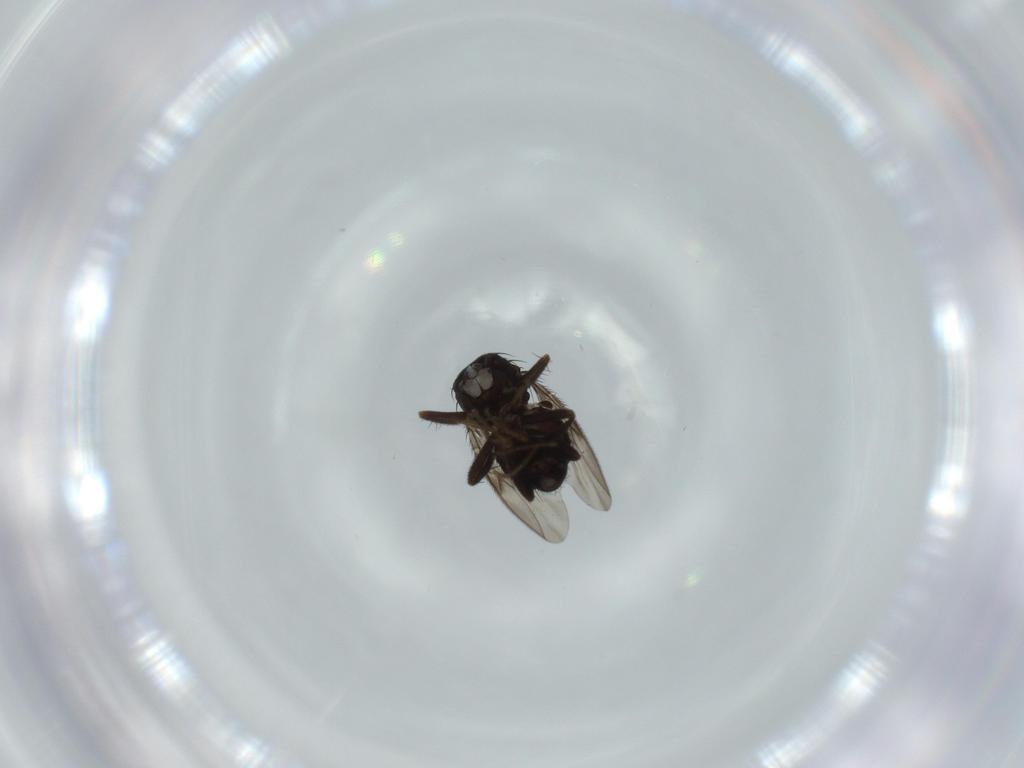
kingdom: Animalia
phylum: Arthropoda
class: Insecta
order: Diptera
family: Sphaeroceridae
